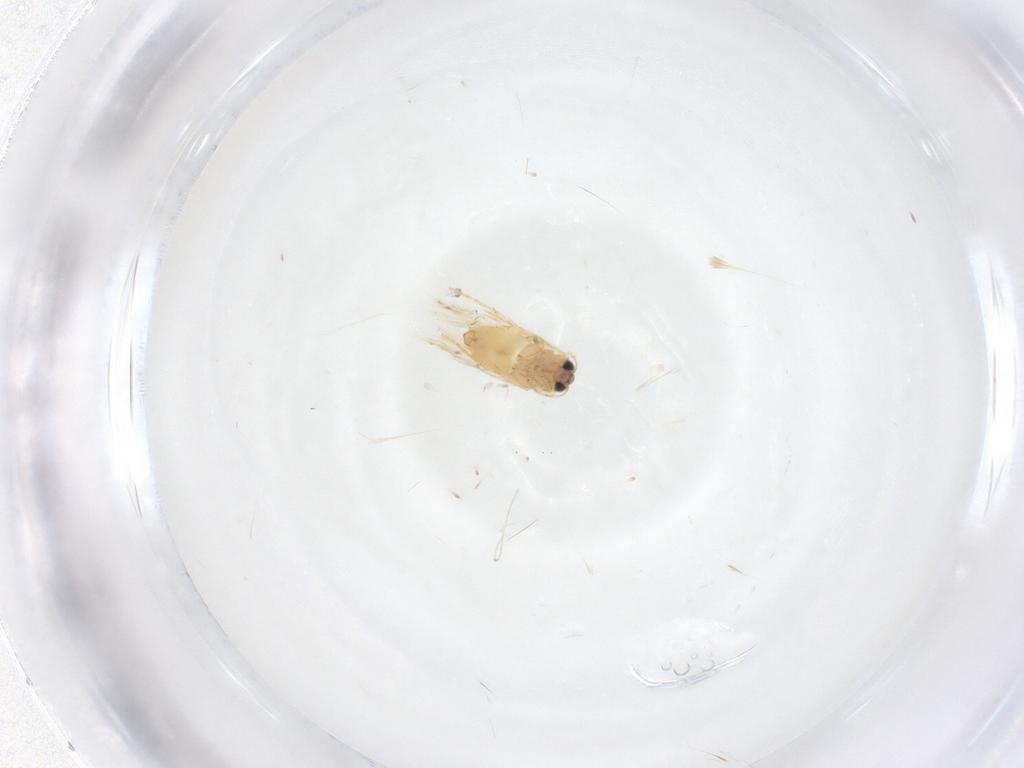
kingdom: Animalia
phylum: Arthropoda
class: Insecta
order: Lepidoptera
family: Crambidae
